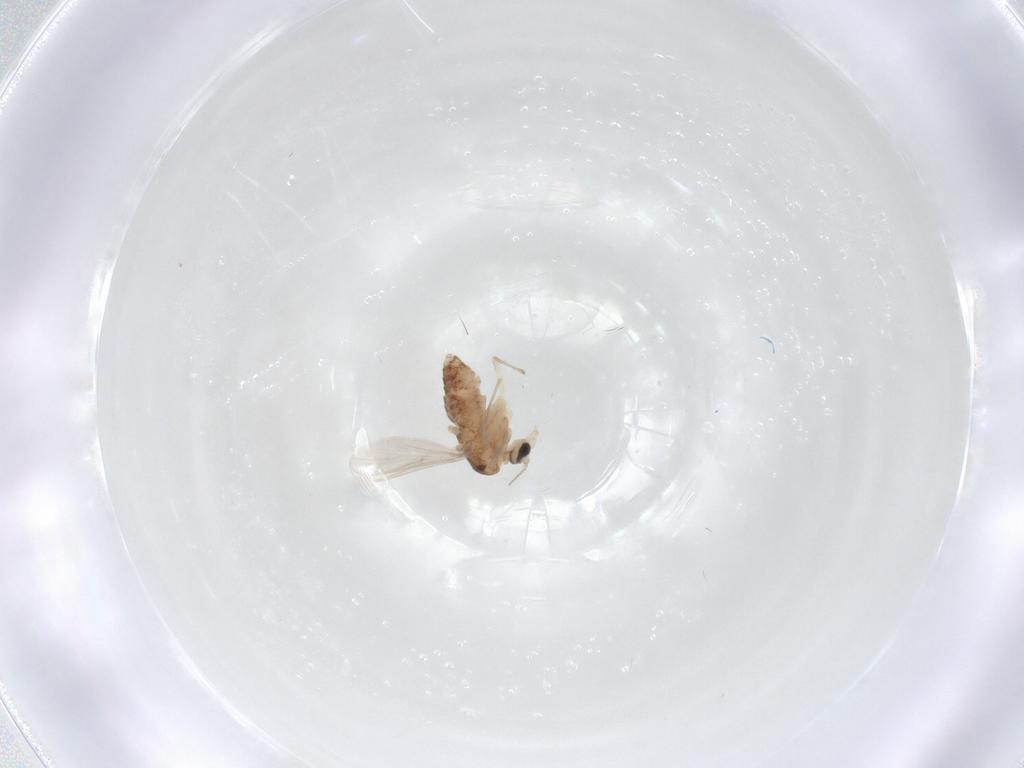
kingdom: Animalia
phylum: Arthropoda
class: Insecta
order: Diptera
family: Chironomidae
